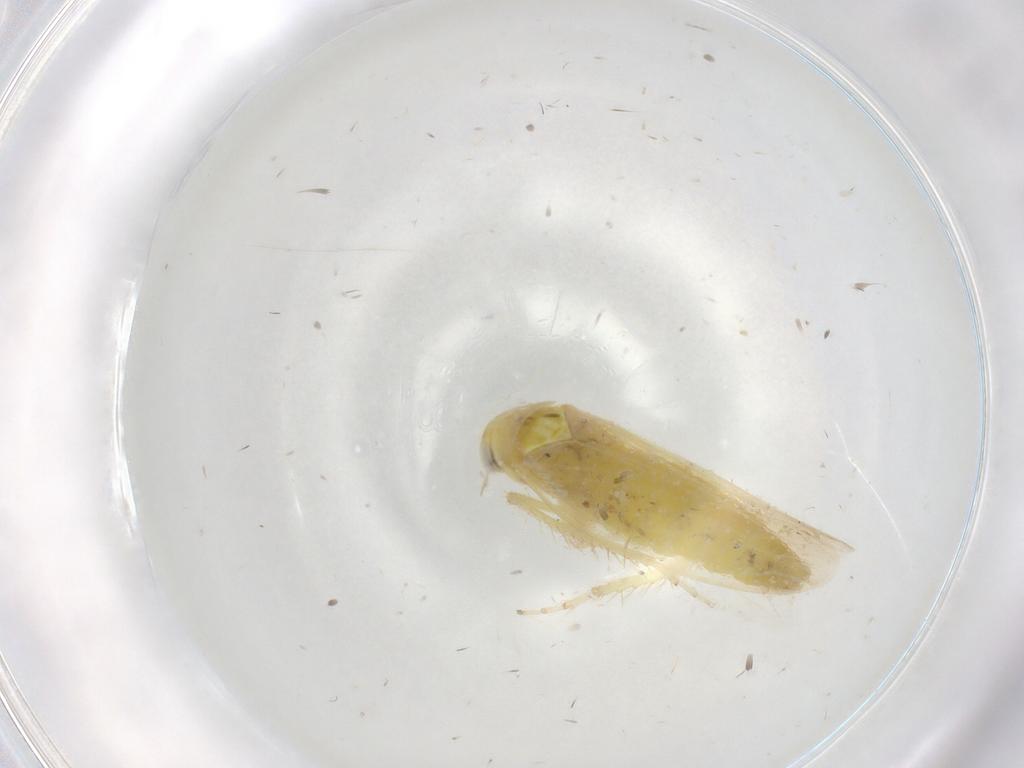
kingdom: Animalia
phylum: Arthropoda
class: Insecta
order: Hemiptera
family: Cicadellidae
